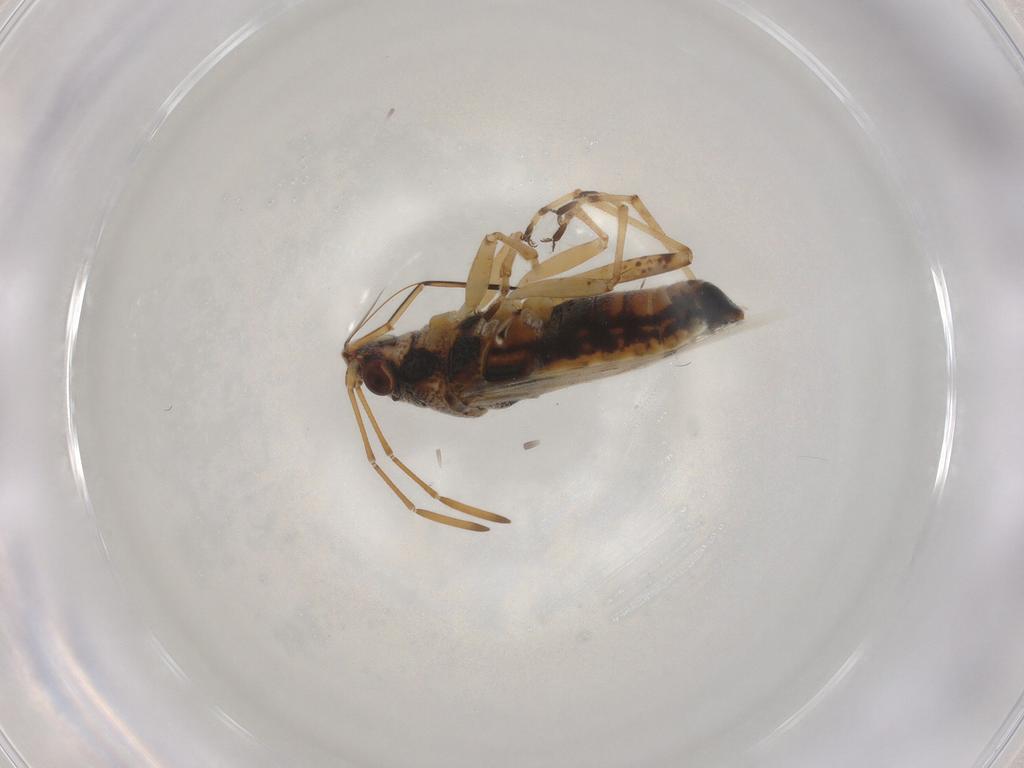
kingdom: Animalia
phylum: Arthropoda
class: Insecta
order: Hemiptera
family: Lygaeidae
